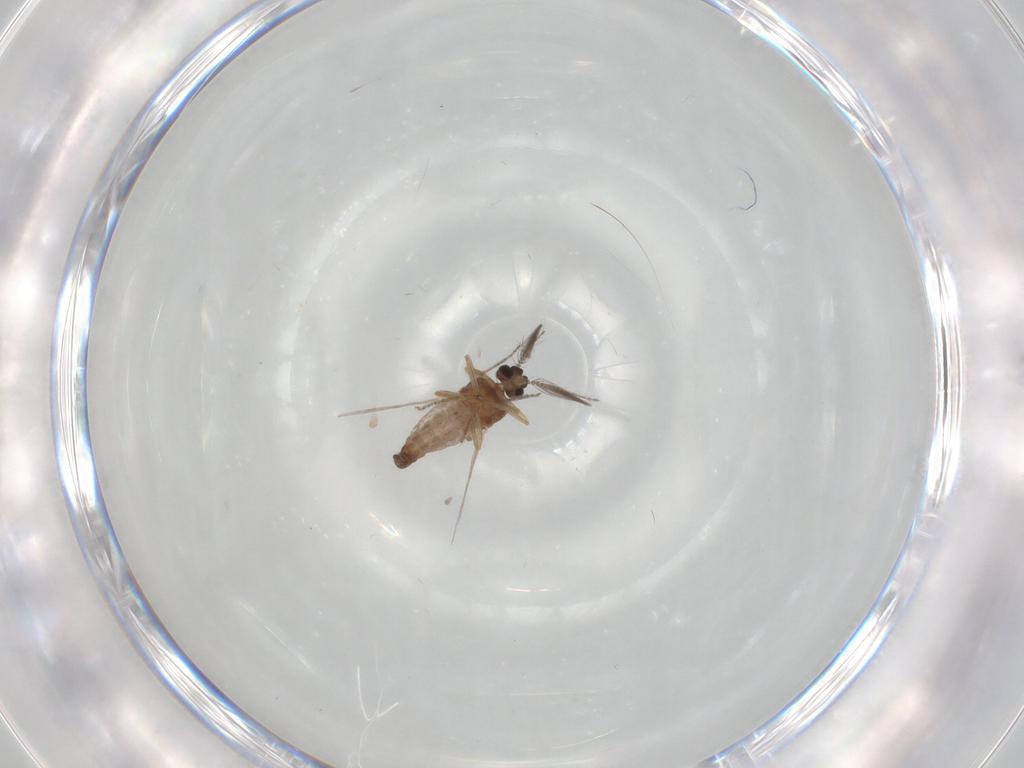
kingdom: Animalia
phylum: Arthropoda
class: Insecta
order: Diptera
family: Ceratopogonidae
